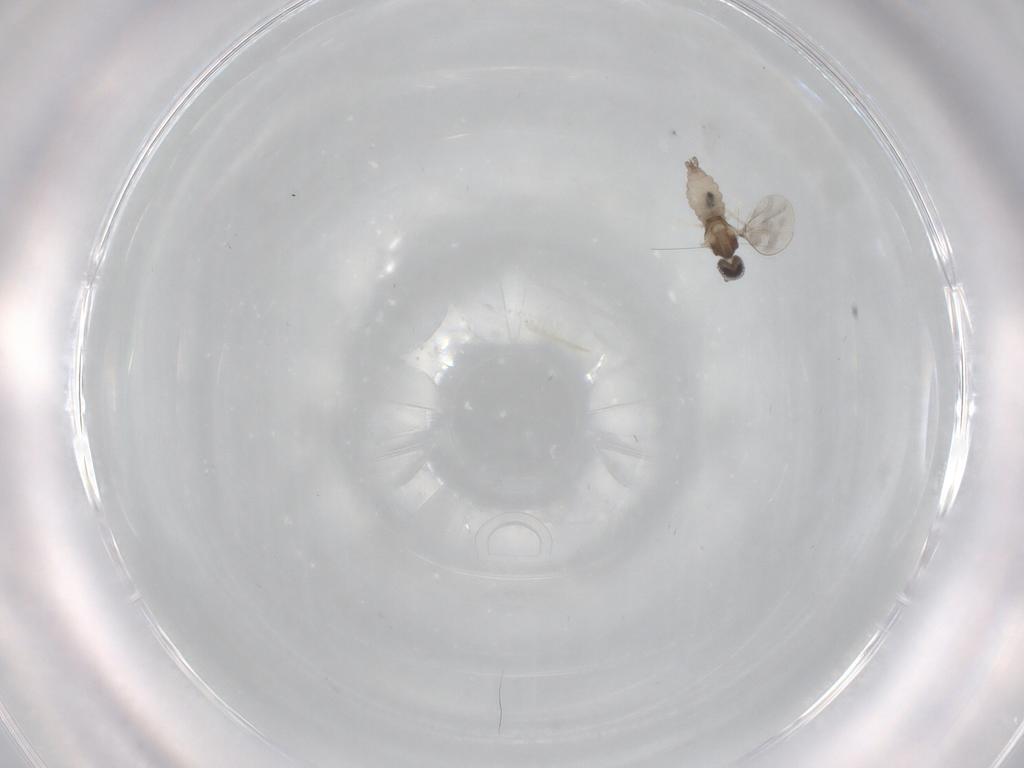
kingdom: Animalia
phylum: Arthropoda
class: Insecta
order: Diptera
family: Cecidomyiidae
